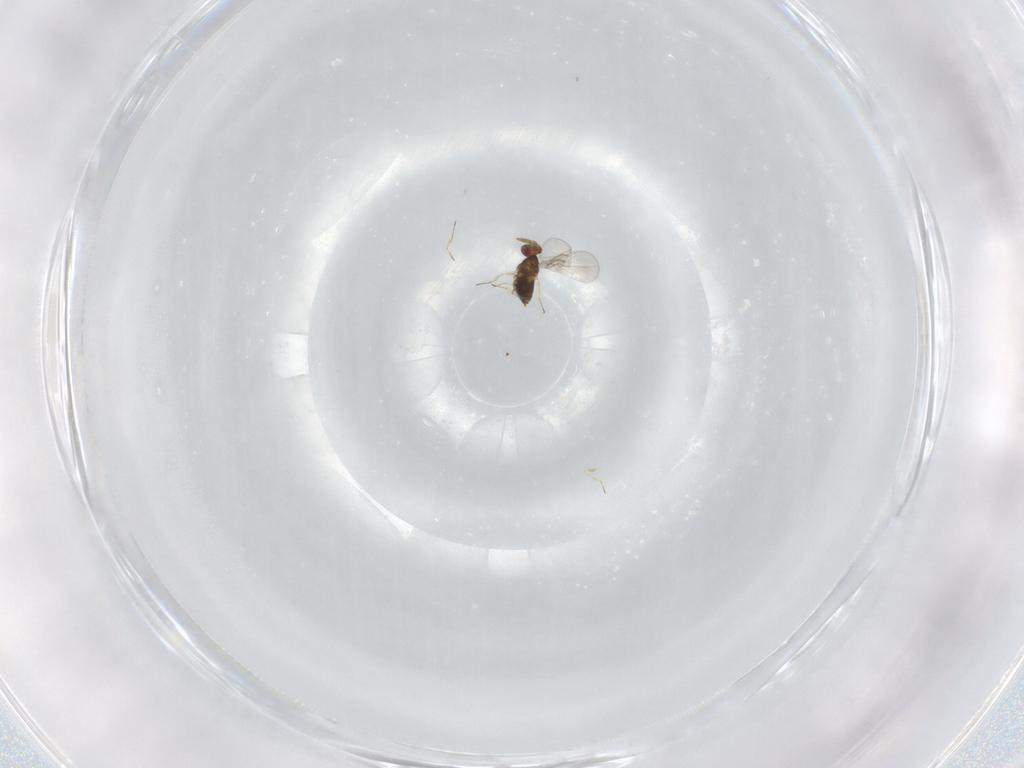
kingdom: Animalia
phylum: Arthropoda
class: Insecta
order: Hymenoptera
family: Trichogrammatidae
